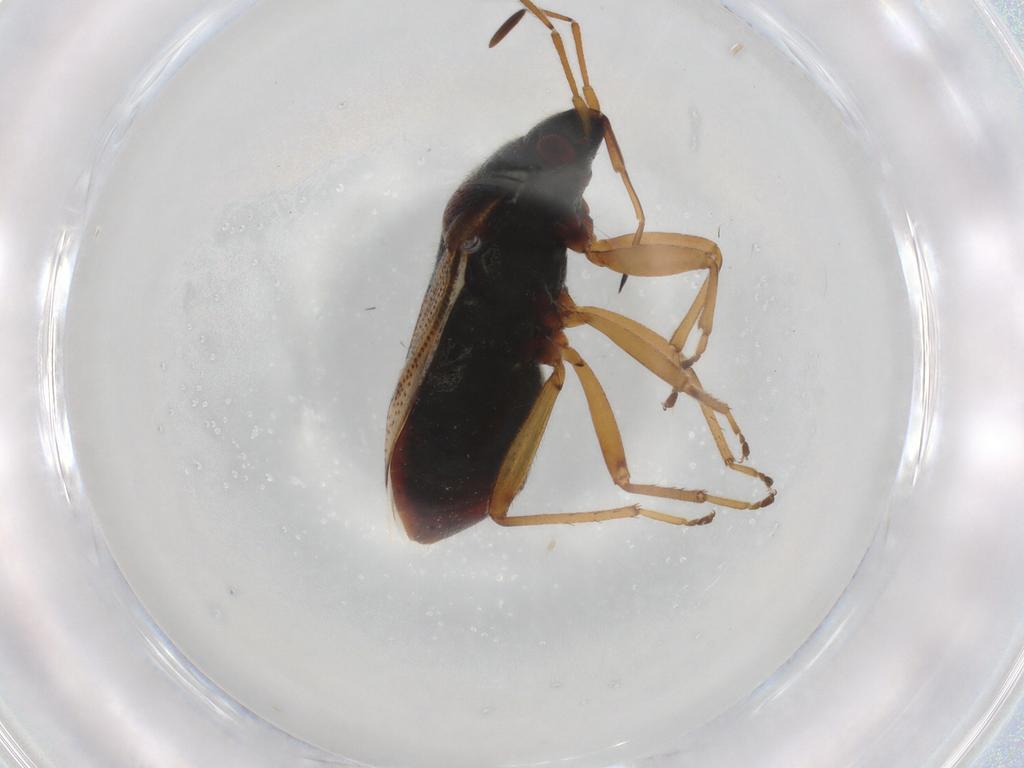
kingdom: Animalia
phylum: Arthropoda
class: Insecta
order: Hemiptera
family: Rhyparochromidae
